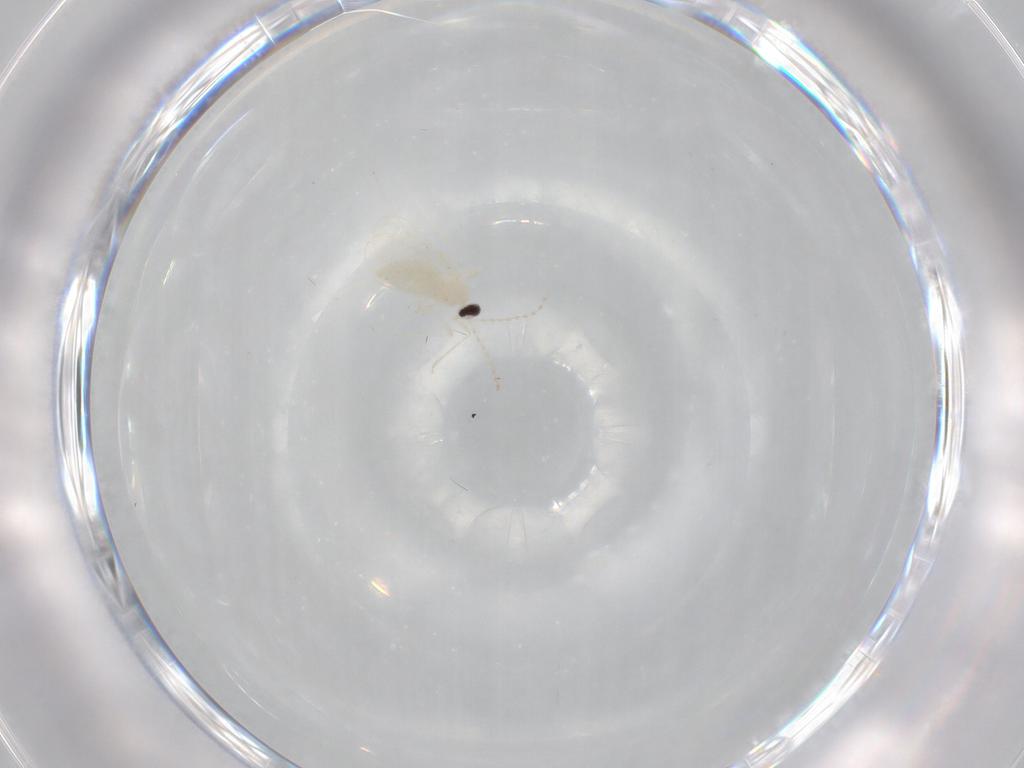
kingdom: Animalia
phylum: Arthropoda
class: Insecta
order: Diptera
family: Cecidomyiidae
